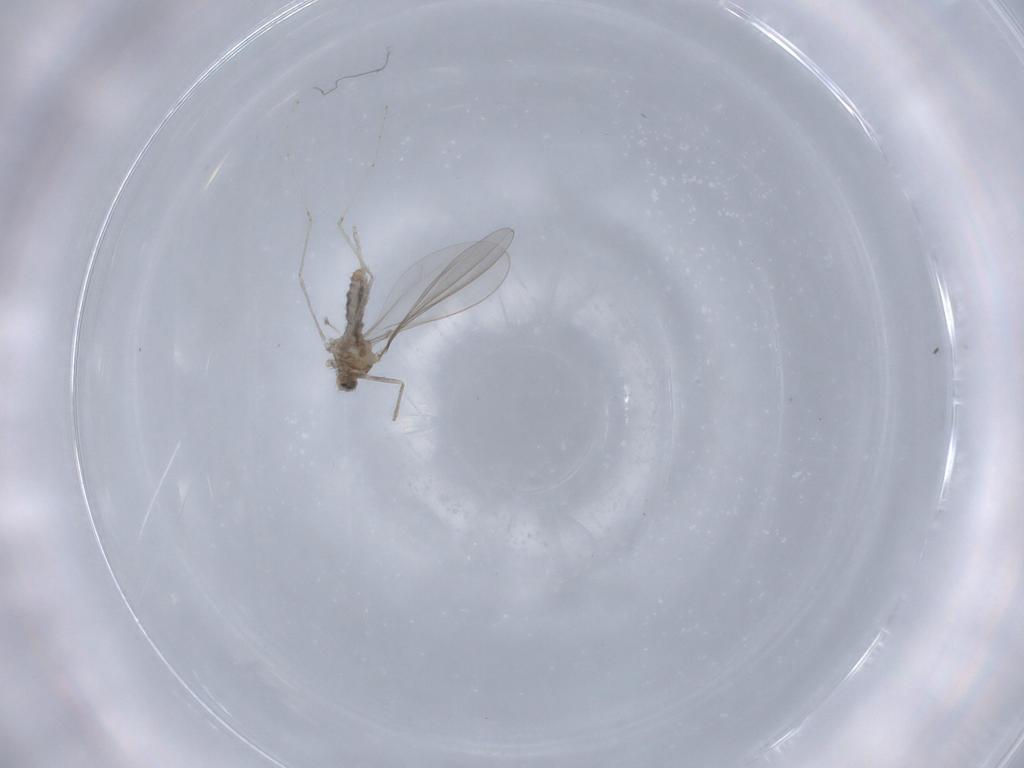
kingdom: Animalia
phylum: Arthropoda
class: Insecta
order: Diptera
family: Cecidomyiidae
